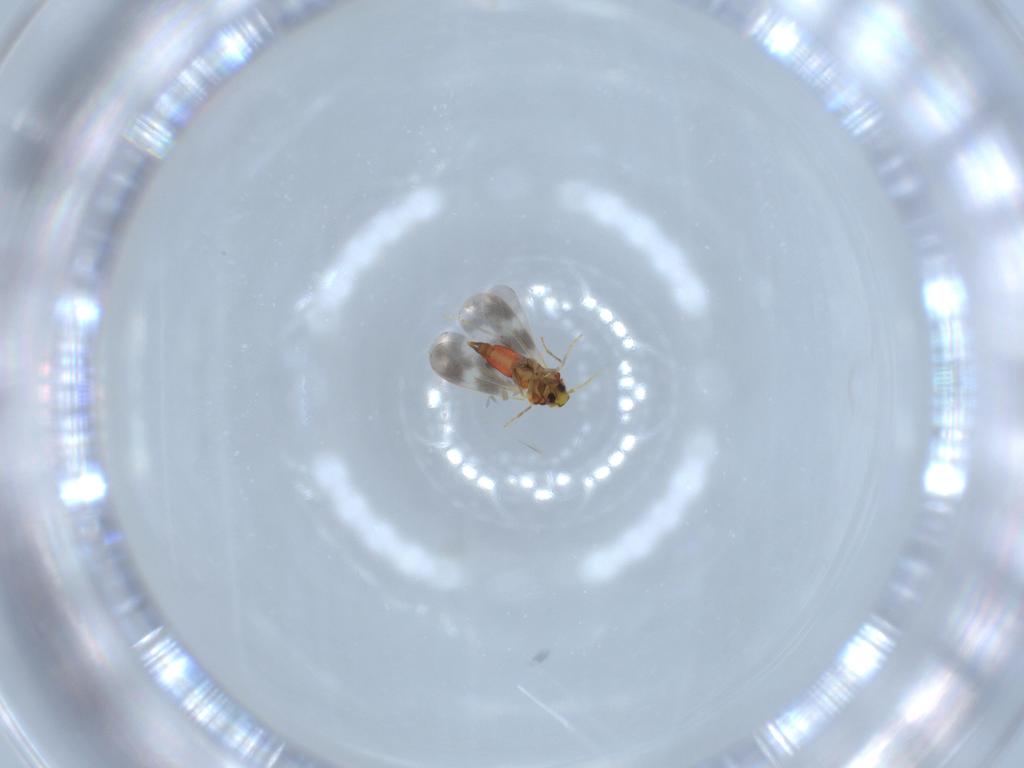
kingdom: Animalia
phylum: Arthropoda
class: Insecta
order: Hemiptera
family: Aleyrodidae
